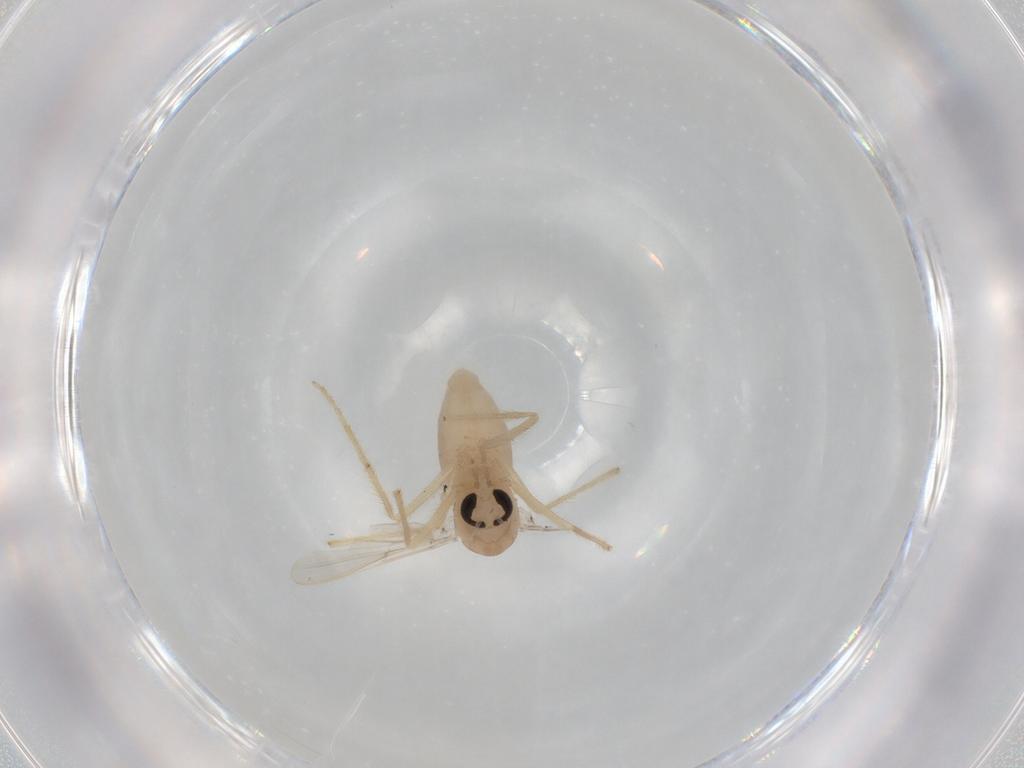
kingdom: Animalia
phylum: Arthropoda
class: Insecta
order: Diptera
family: Chironomidae
